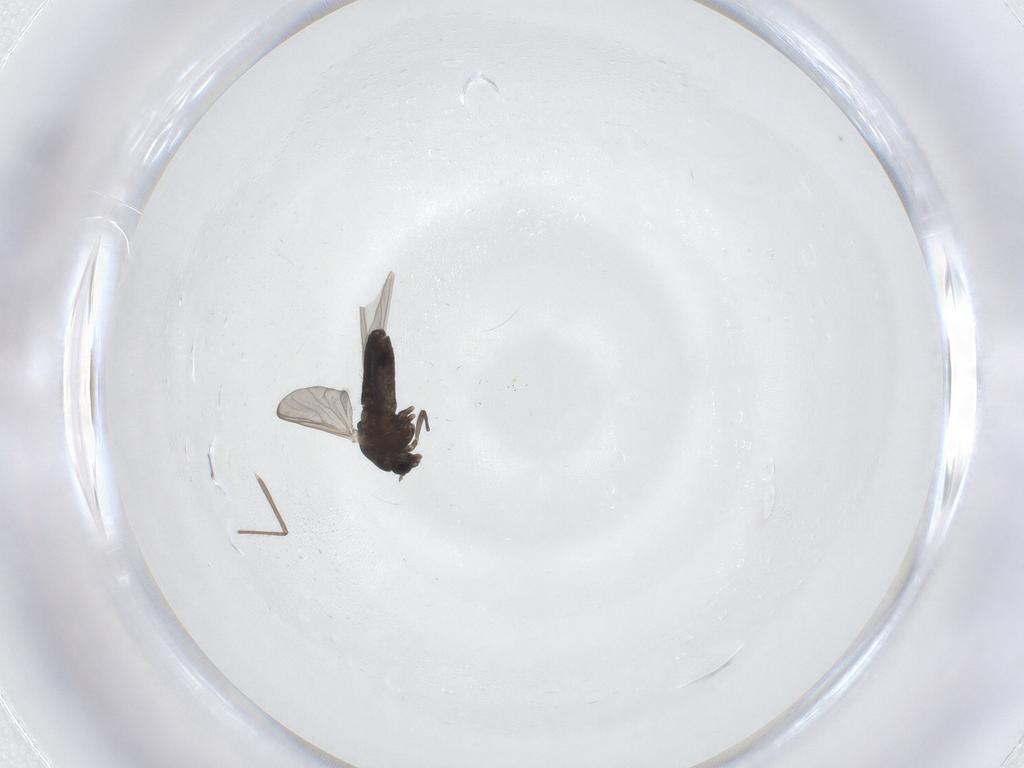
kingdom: Animalia
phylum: Arthropoda
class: Insecta
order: Diptera
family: Chironomidae
